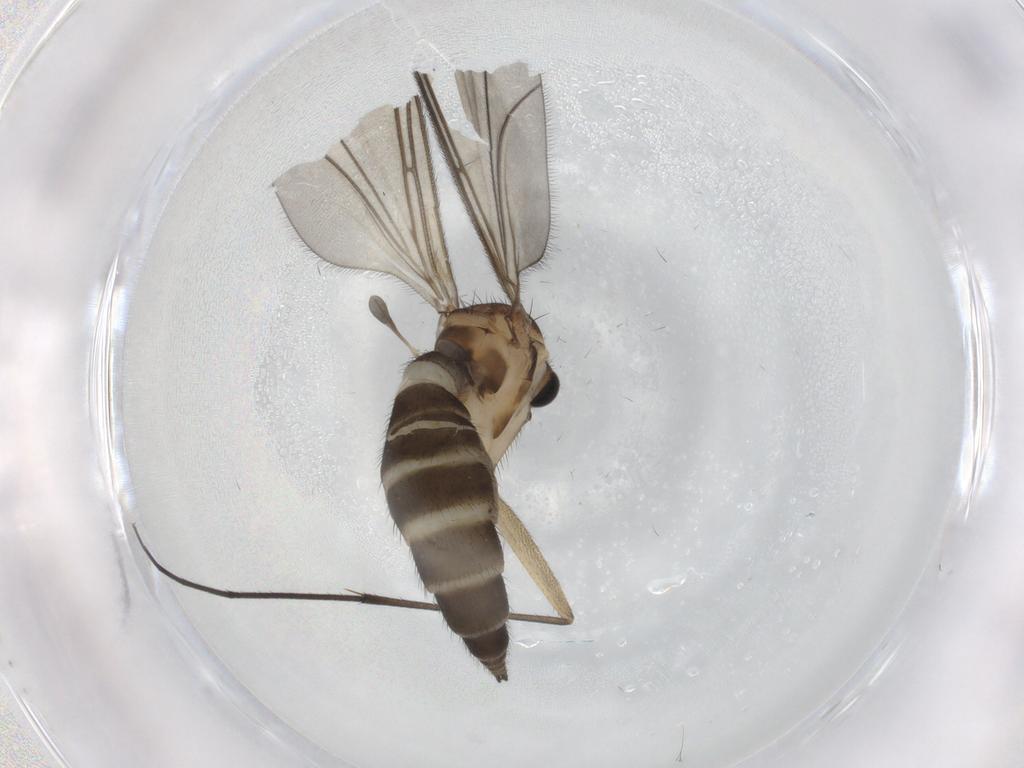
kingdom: Animalia
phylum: Arthropoda
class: Insecta
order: Diptera
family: Sciaridae
